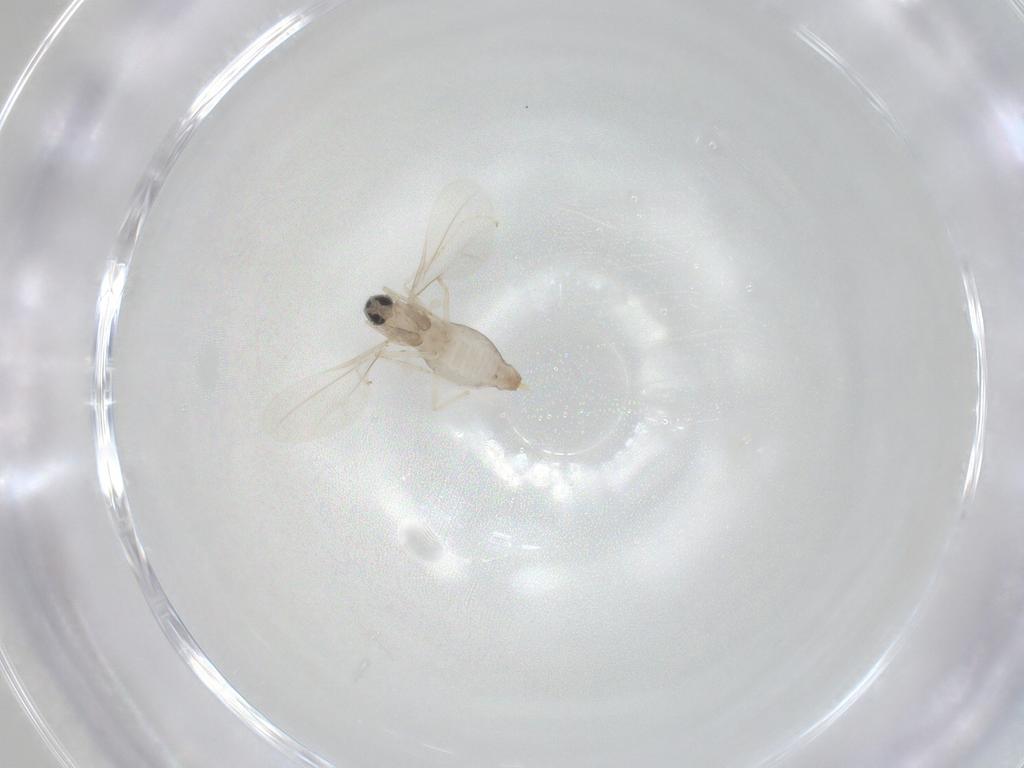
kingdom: Animalia
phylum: Arthropoda
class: Insecta
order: Diptera
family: Cecidomyiidae
